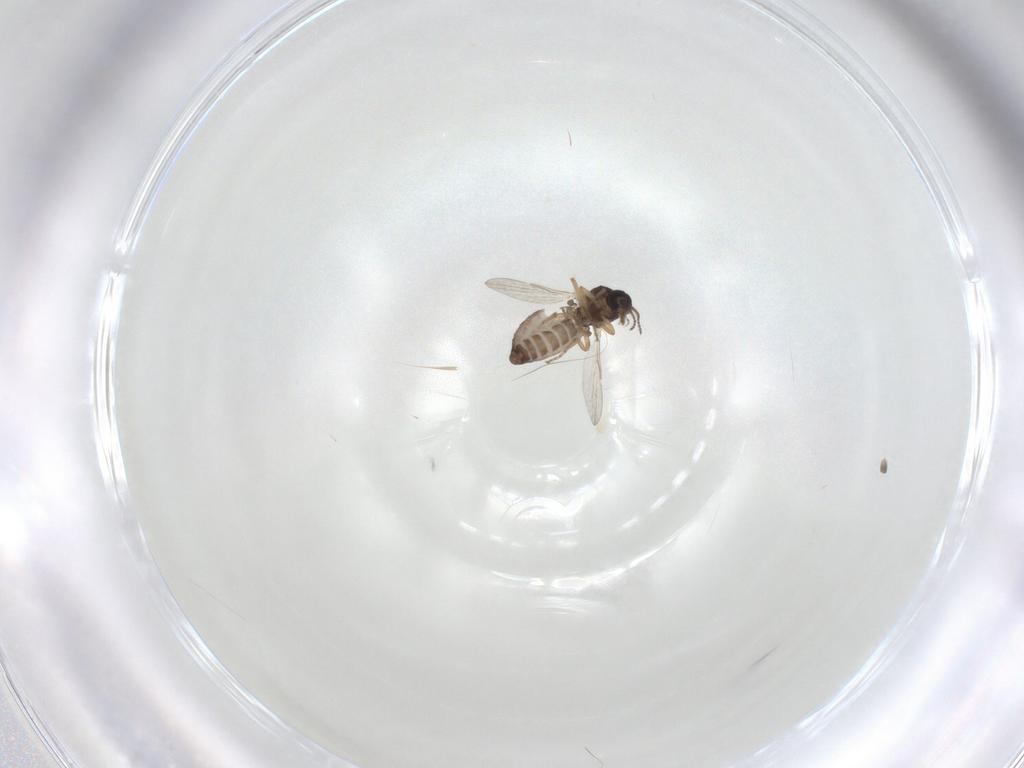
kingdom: Animalia
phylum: Arthropoda
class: Insecta
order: Diptera
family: Ceratopogonidae
